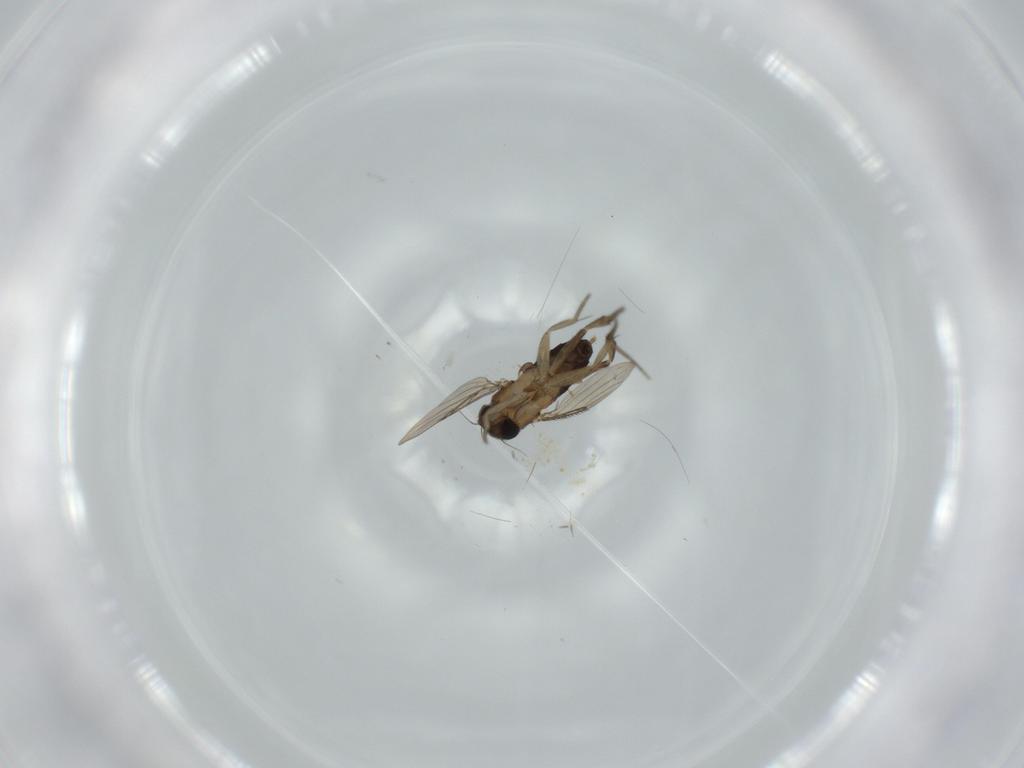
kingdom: Animalia
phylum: Arthropoda
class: Insecta
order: Diptera
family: Phoridae
